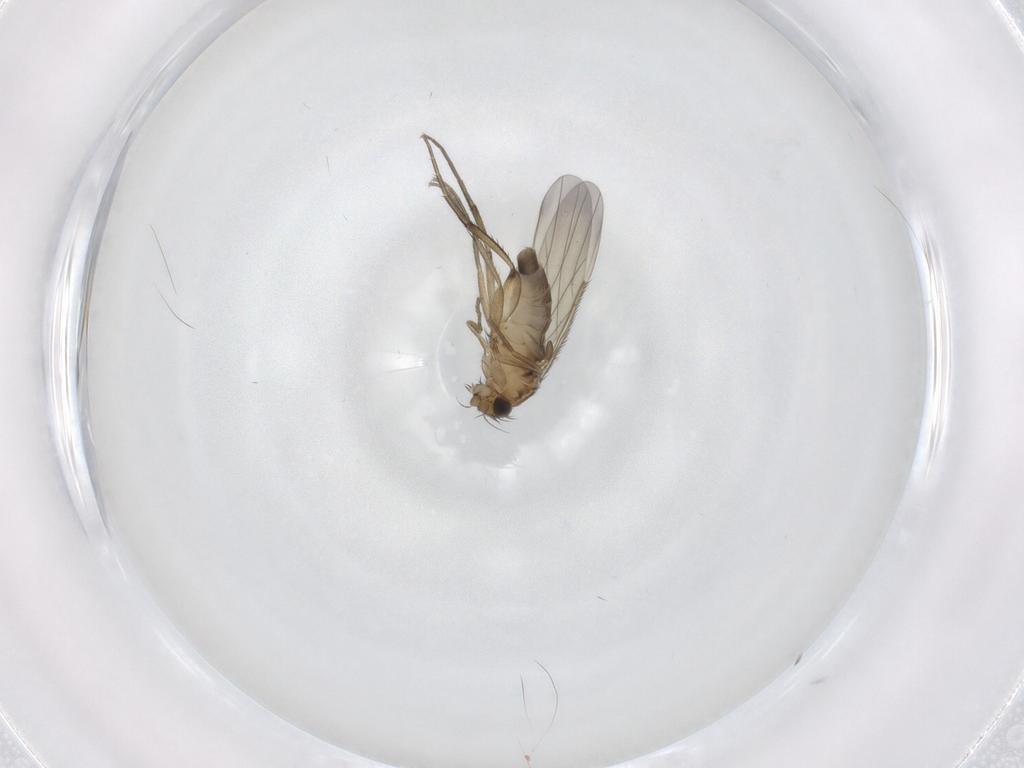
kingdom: Animalia
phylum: Arthropoda
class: Insecta
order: Diptera
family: Phoridae
